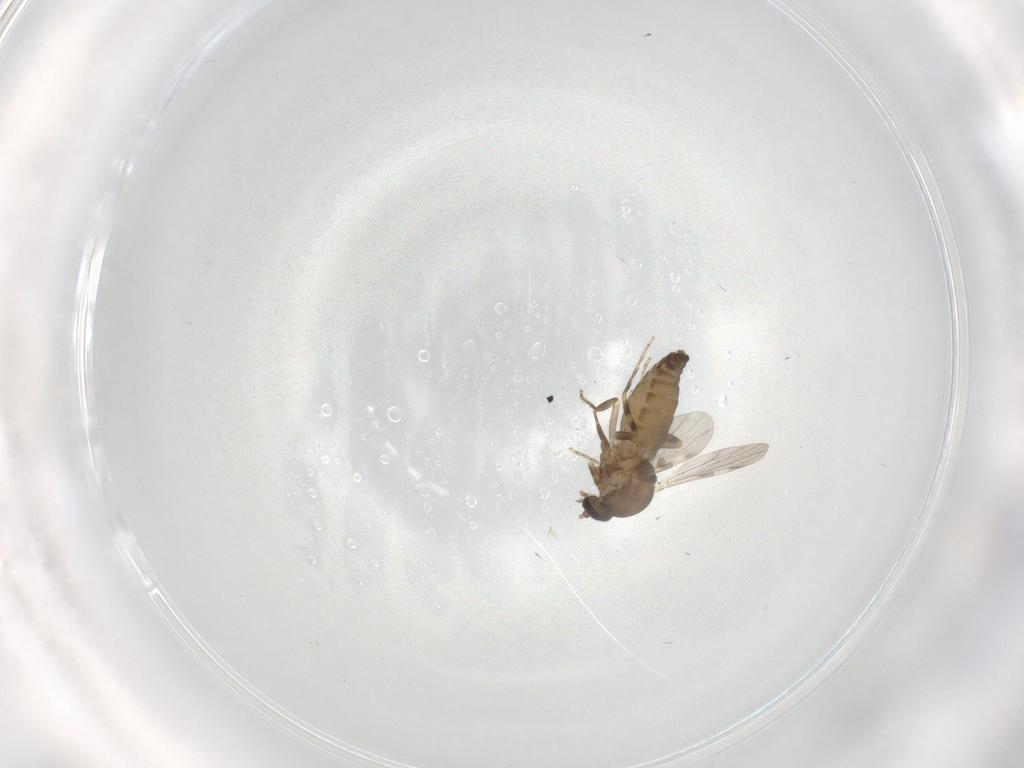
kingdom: Animalia
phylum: Arthropoda
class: Insecta
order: Diptera
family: Ceratopogonidae
